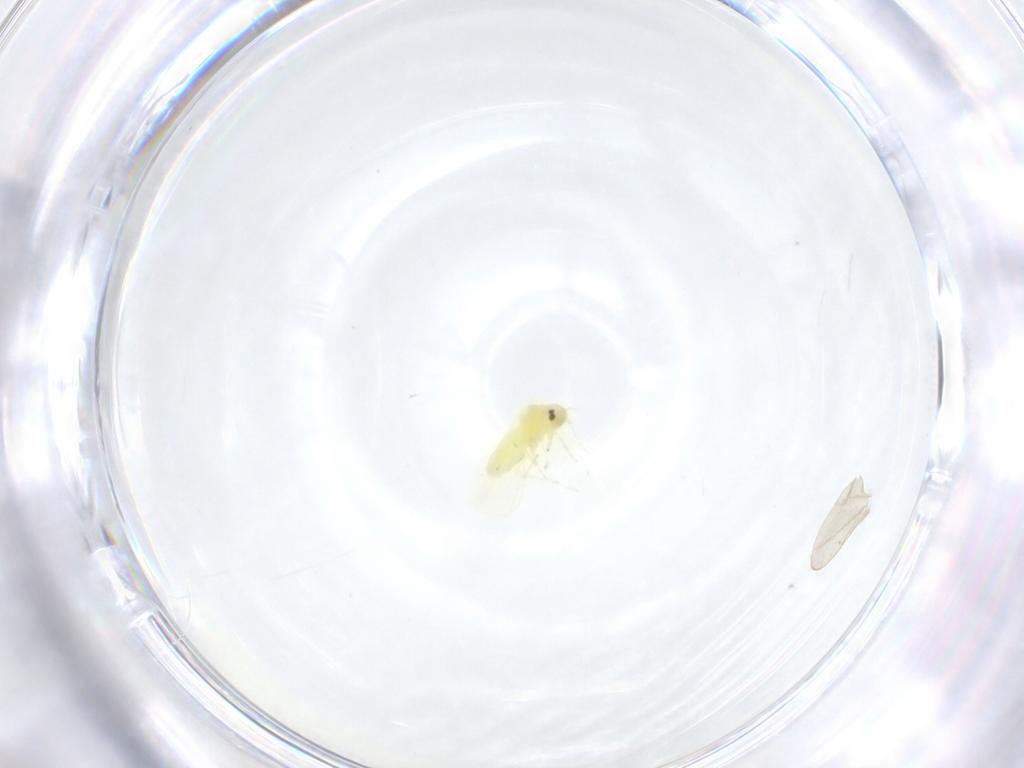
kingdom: Animalia
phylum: Arthropoda
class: Insecta
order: Hemiptera
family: Aleyrodidae
